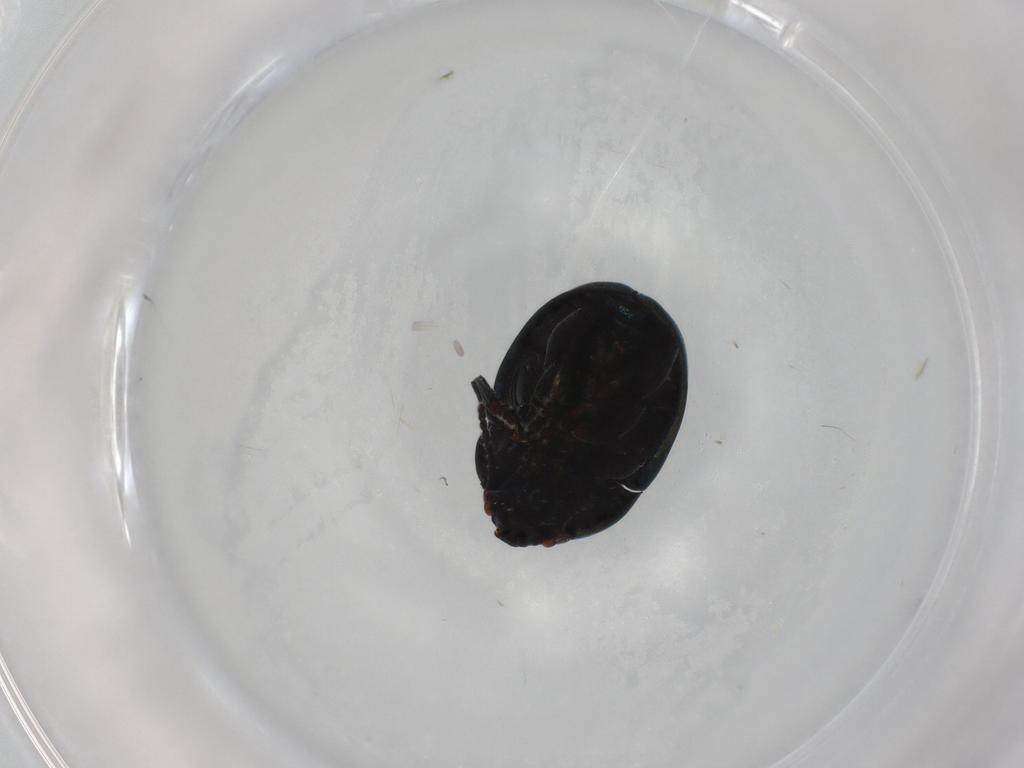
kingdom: Animalia
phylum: Arthropoda
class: Insecta
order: Coleoptera
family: Chrysomelidae
